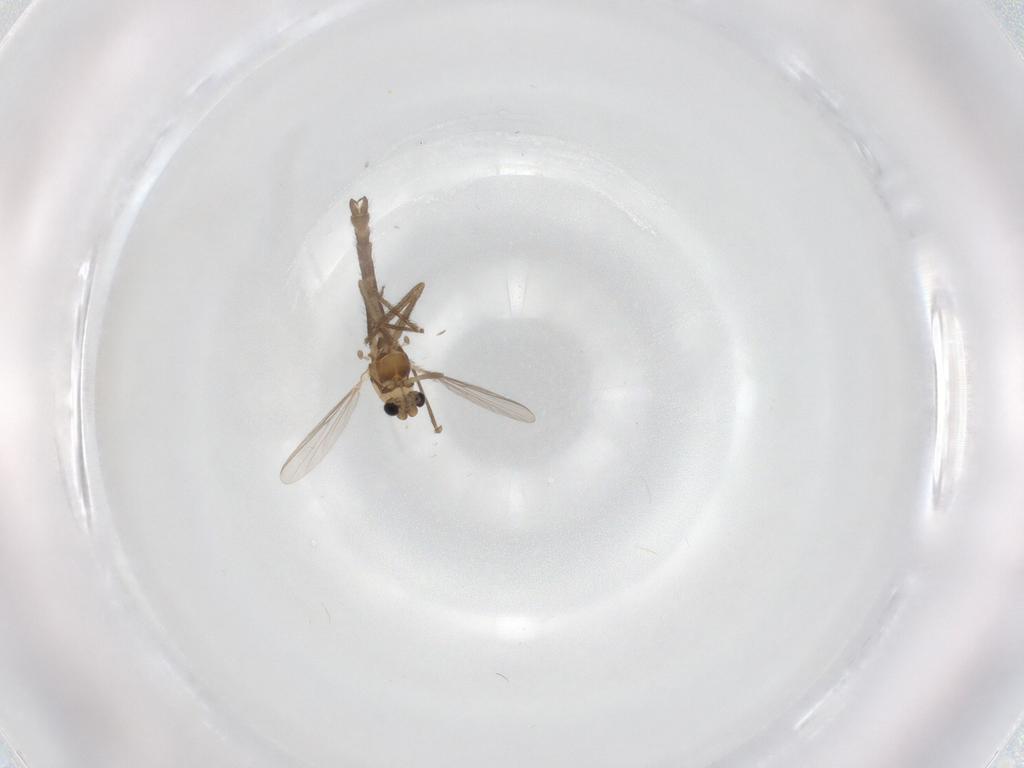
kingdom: Animalia
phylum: Arthropoda
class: Insecta
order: Diptera
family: Chironomidae
